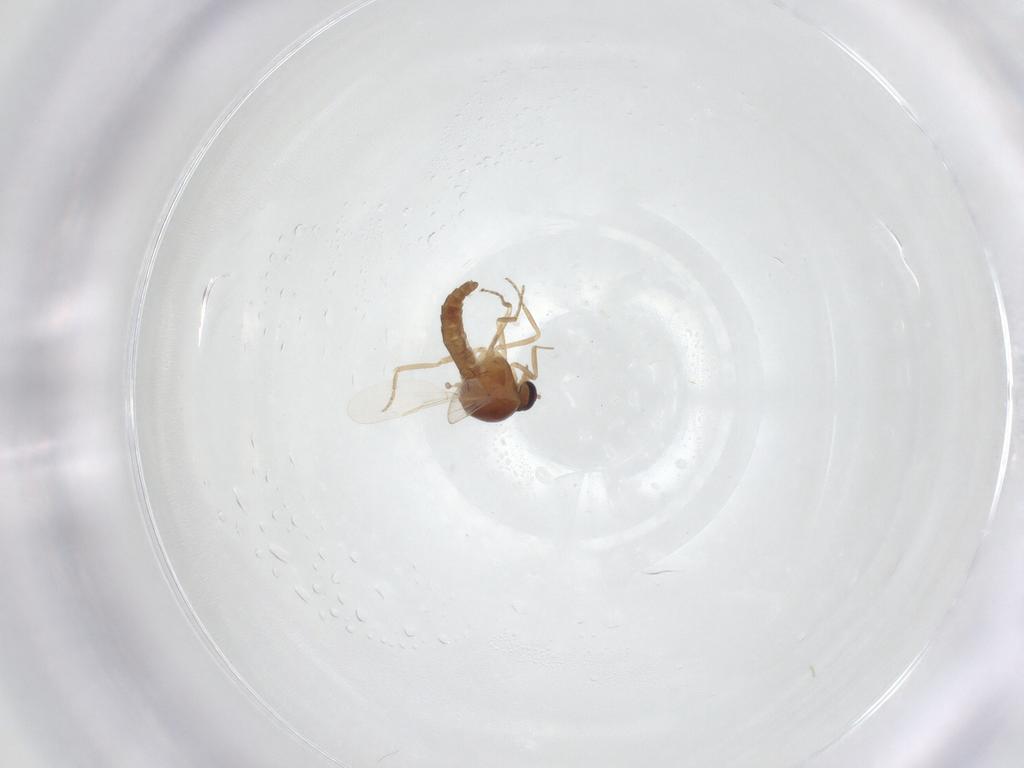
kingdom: Animalia
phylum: Arthropoda
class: Insecta
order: Diptera
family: Ceratopogonidae
